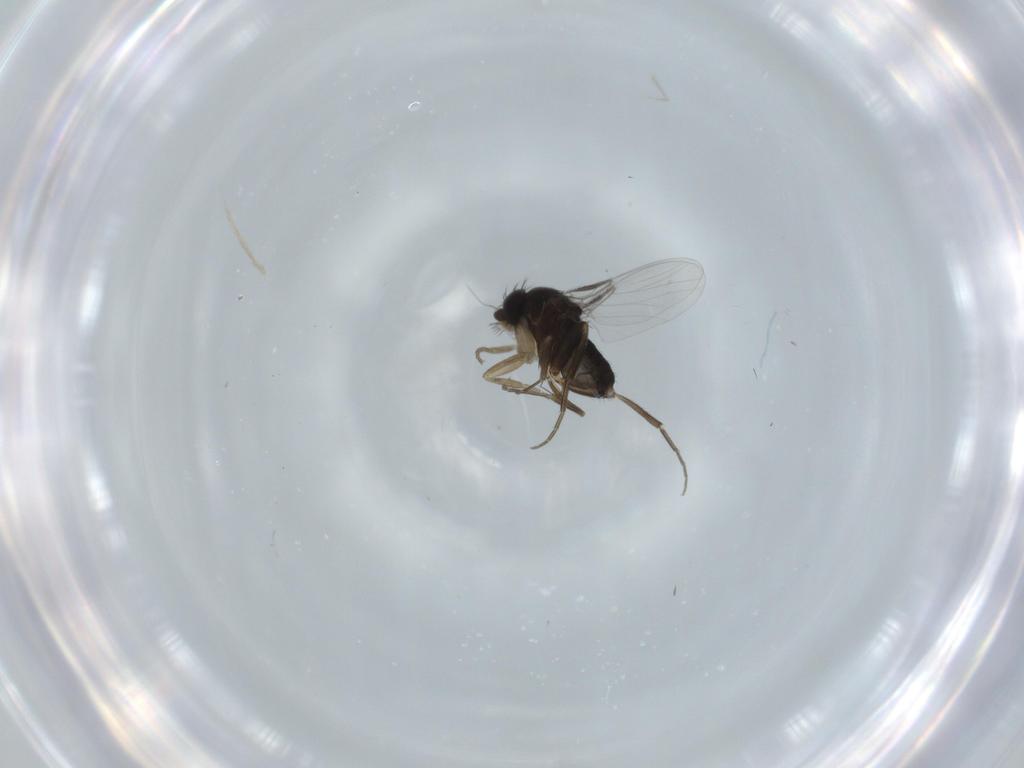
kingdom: Animalia
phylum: Arthropoda
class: Insecta
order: Diptera
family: Phoridae
